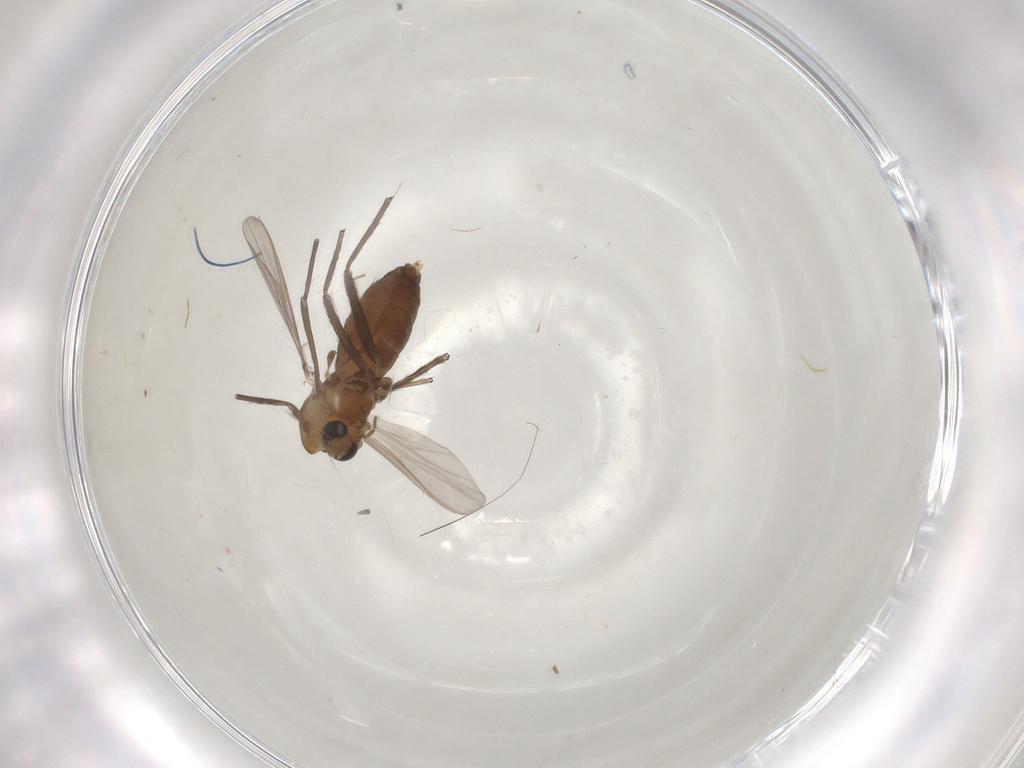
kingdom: Animalia
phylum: Arthropoda
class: Insecta
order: Diptera
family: Chironomidae
